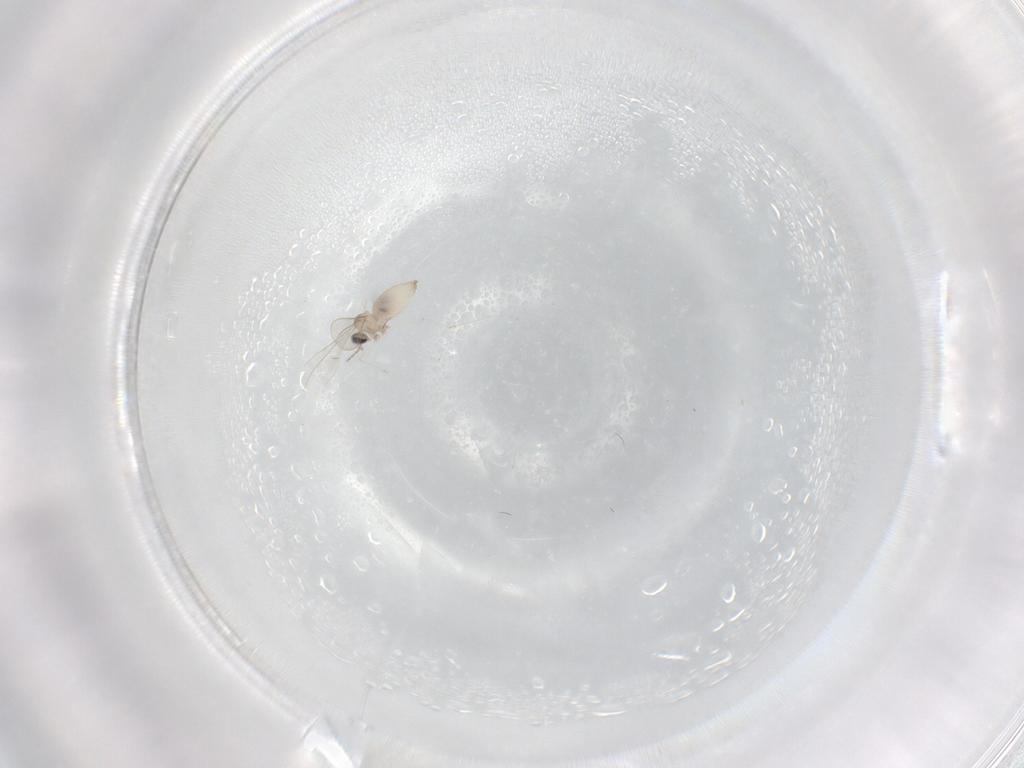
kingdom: Animalia
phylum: Arthropoda
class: Insecta
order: Diptera
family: Cecidomyiidae
